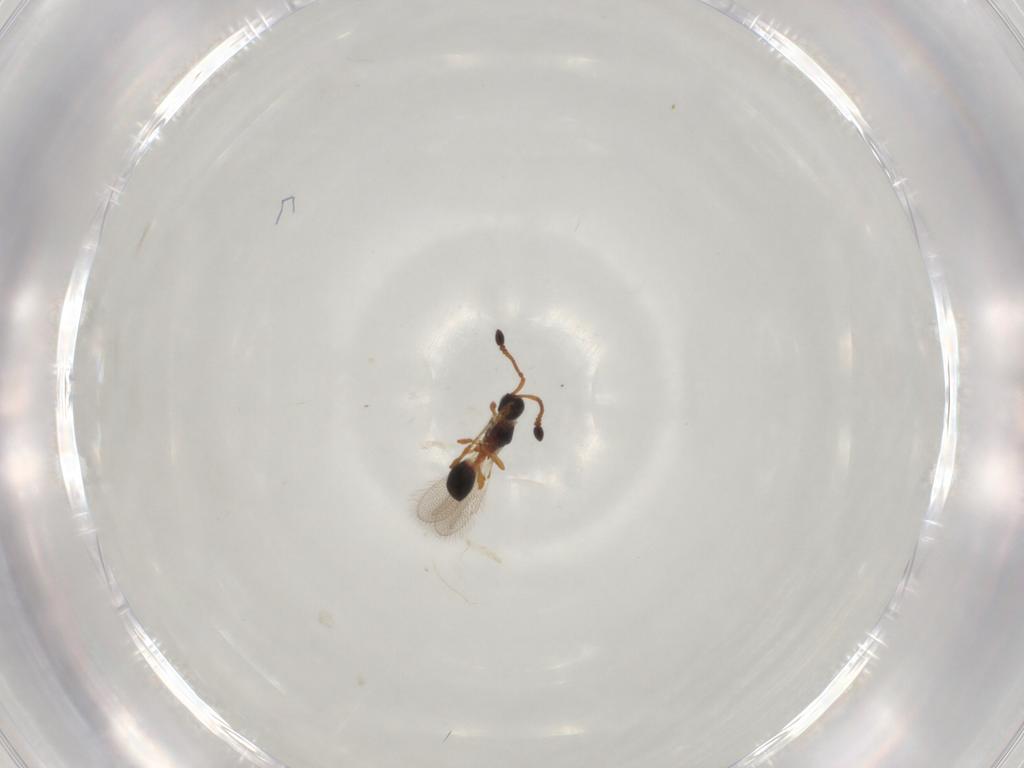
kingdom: Animalia
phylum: Arthropoda
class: Insecta
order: Hymenoptera
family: Diapriidae
